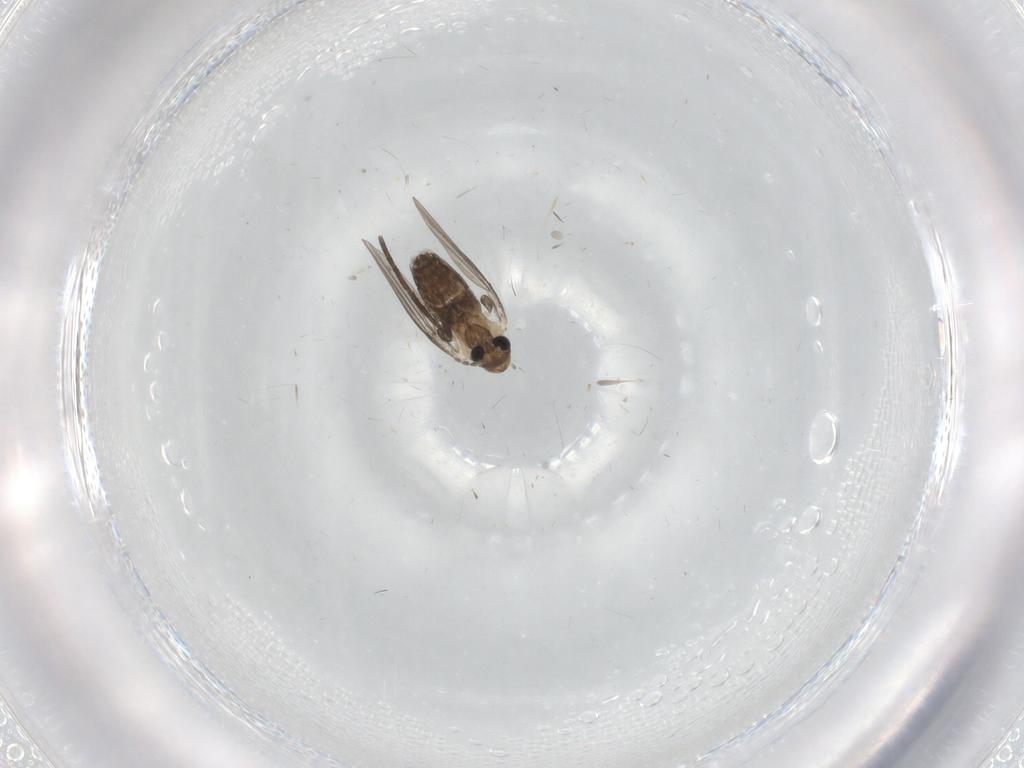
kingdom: Animalia
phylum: Arthropoda
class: Insecta
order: Diptera
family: Psychodidae
